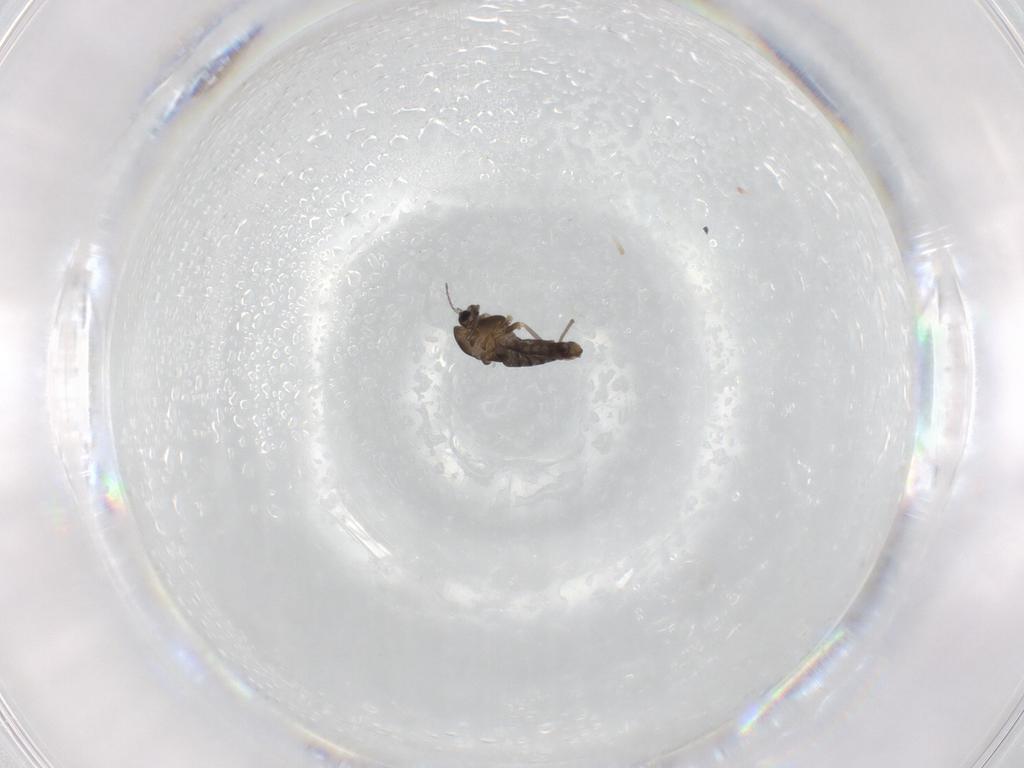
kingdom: Animalia
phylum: Arthropoda
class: Insecta
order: Diptera
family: Chironomidae
